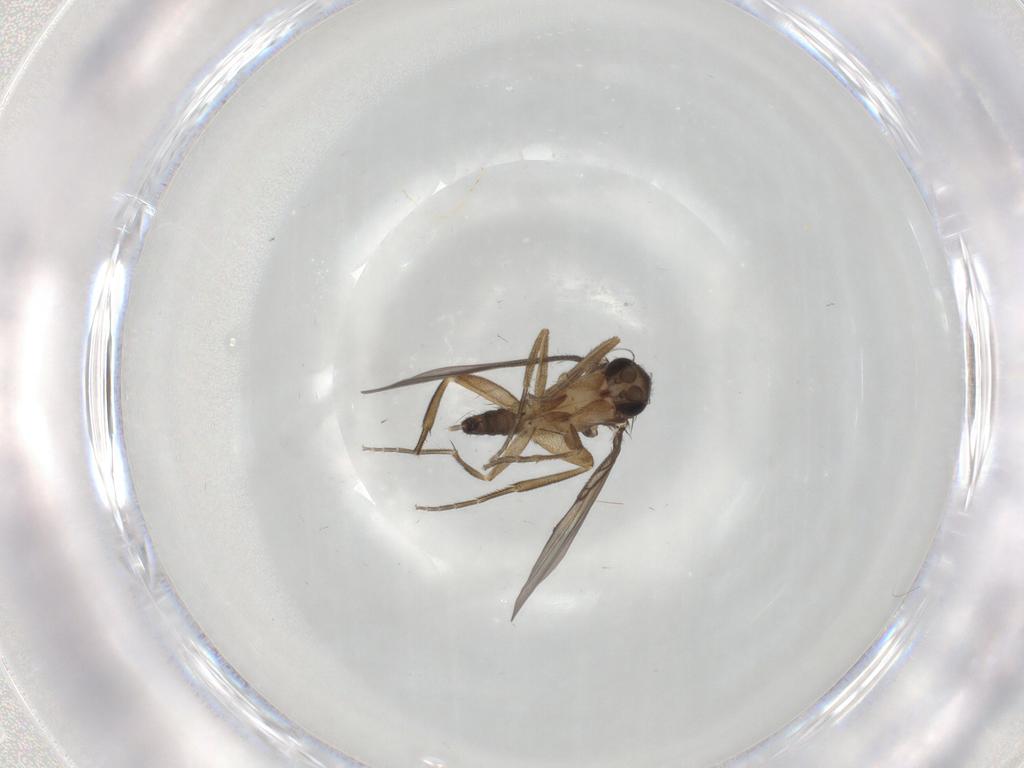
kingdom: Animalia
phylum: Arthropoda
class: Insecta
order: Diptera
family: Phoridae
